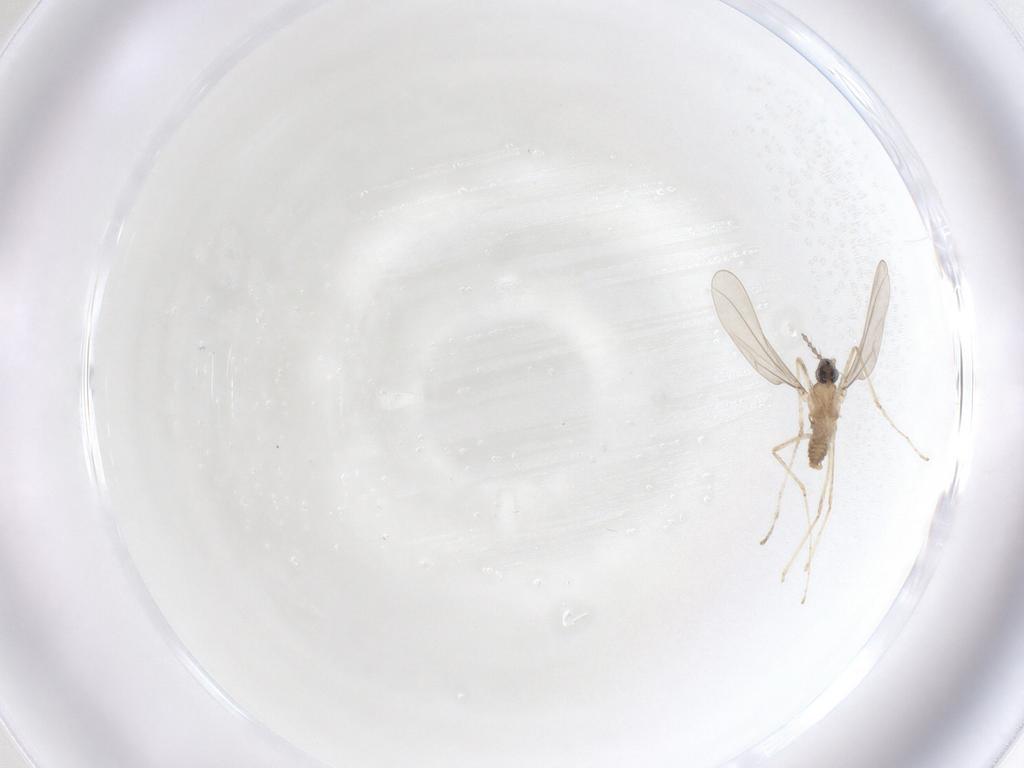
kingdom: Animalia
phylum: Arthropoda
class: Insecta
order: Diptera
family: Cecidomyiidae
